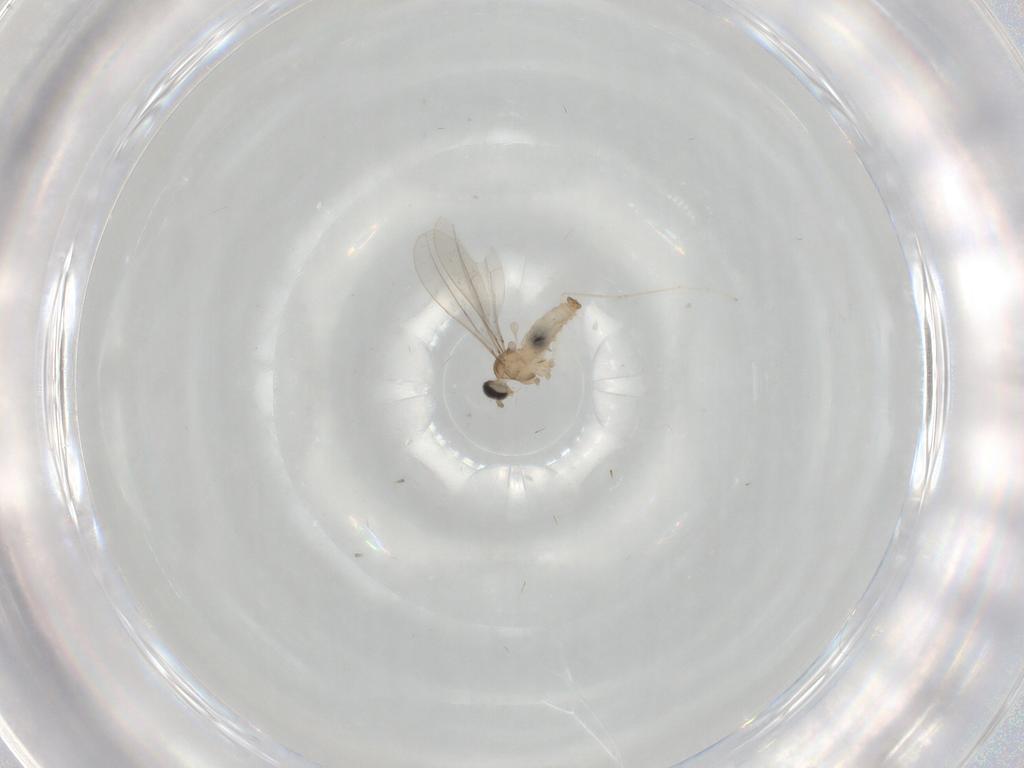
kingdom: Animalia
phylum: Arthropoda
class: Insecta
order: Diptera
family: Cecidomyiidae
